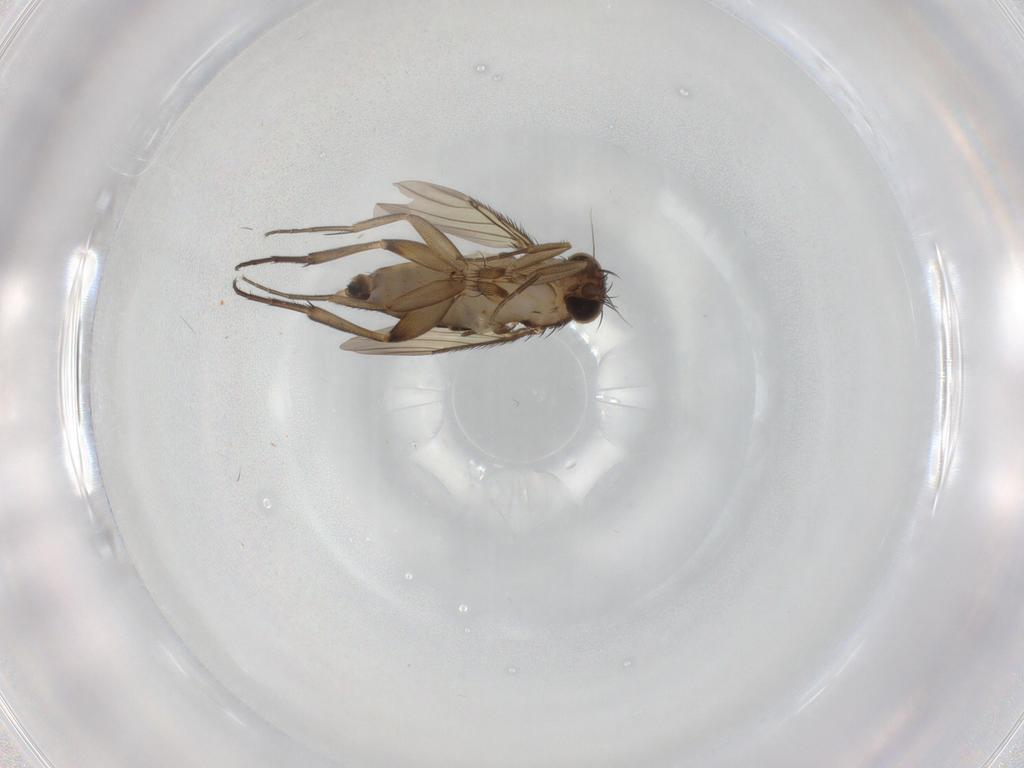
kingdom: Animalia
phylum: Arthropoda
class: Insecta
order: Diptera
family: Phoridae
